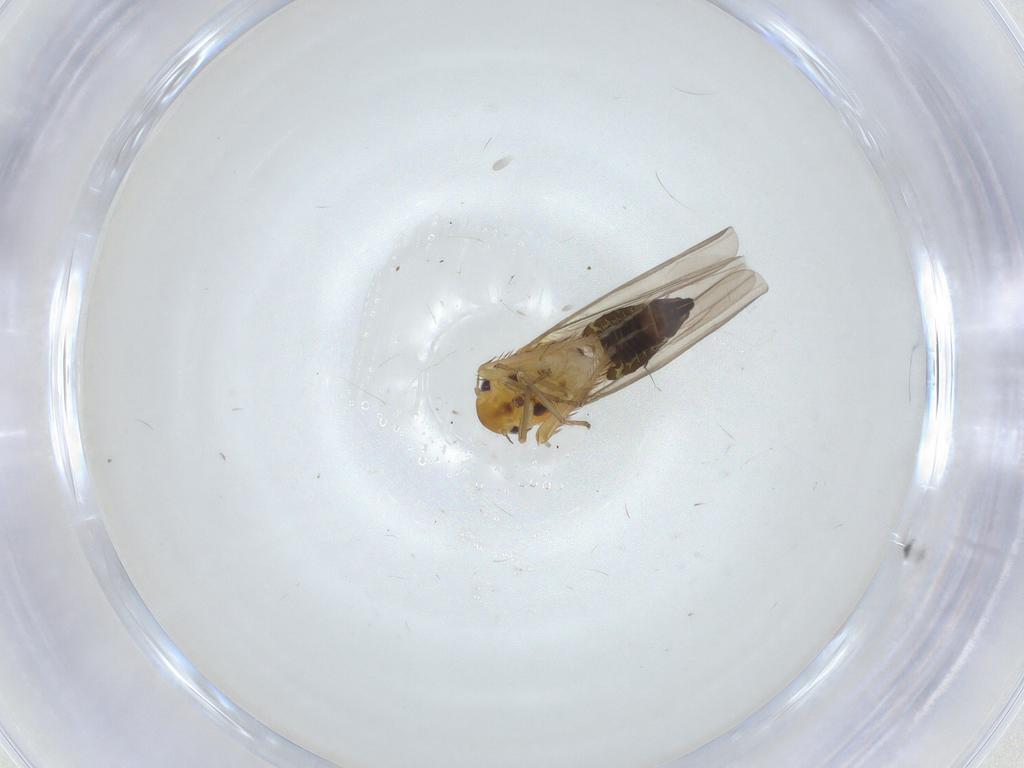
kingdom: Animalia
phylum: Arthropoda
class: Insecta
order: Hemiptera
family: Cicadellidae
